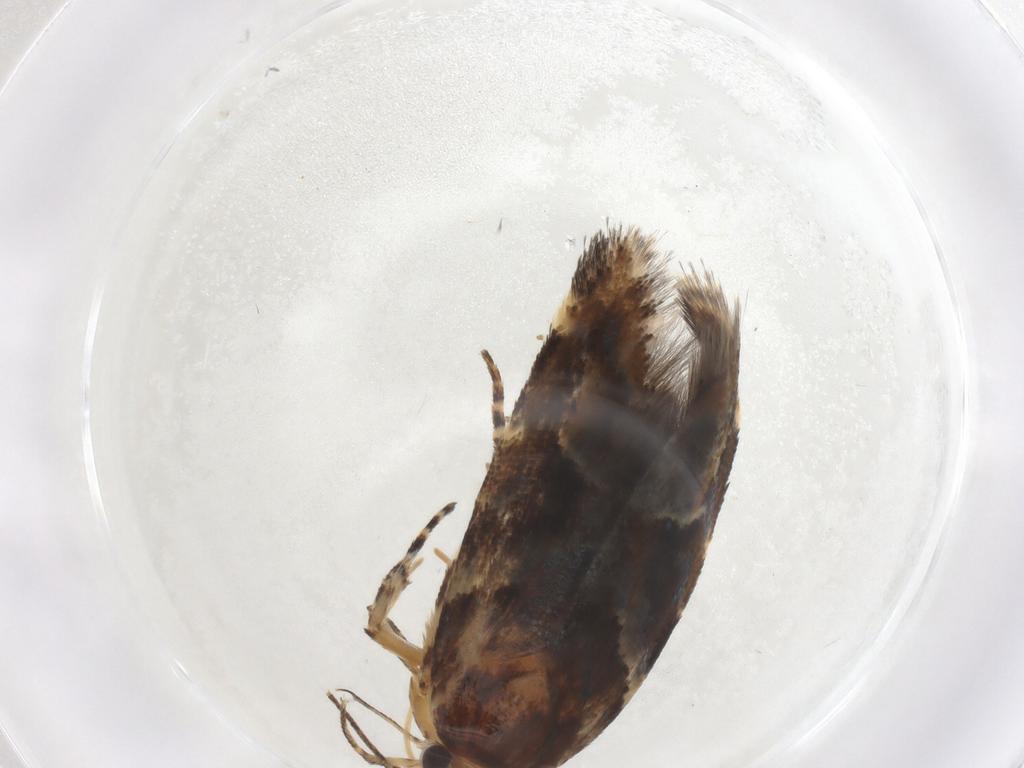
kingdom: Animalia
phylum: Arthropoda
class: Insecta
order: Lepidoptera
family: Gelechiidae
